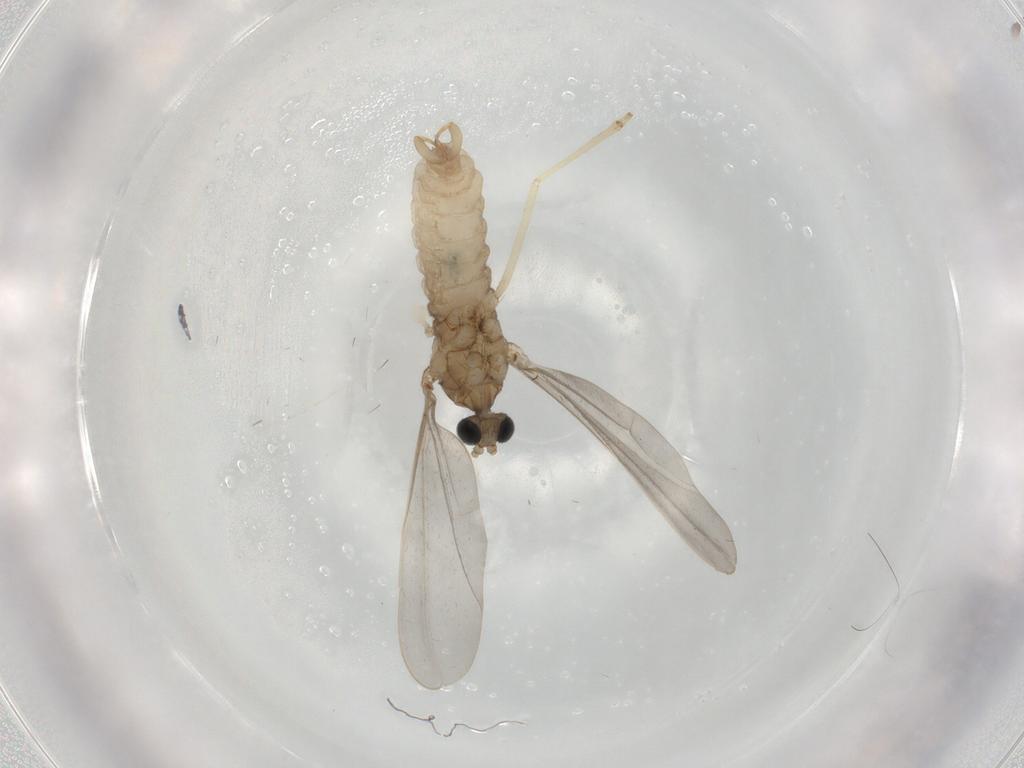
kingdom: Animalia
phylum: Arthropoda
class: Insecta
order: Diptera
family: Cecidomyiidae
